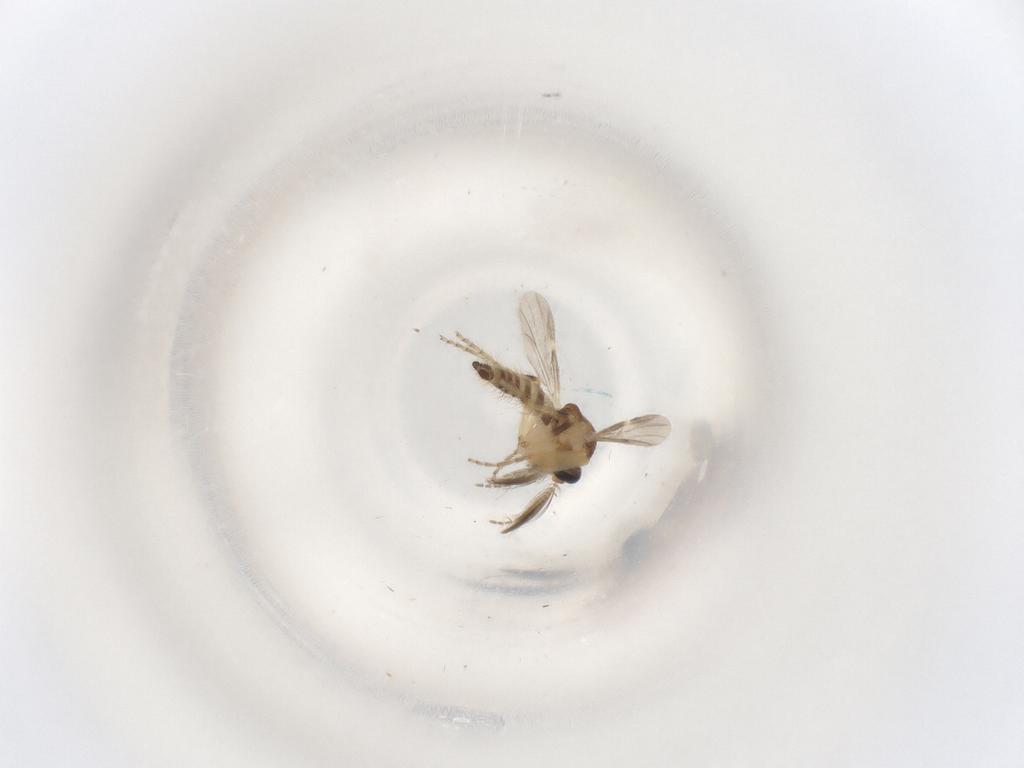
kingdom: Animalia
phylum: Arthropoda
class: Insecta
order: Diptera
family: Ceratopogonidae
